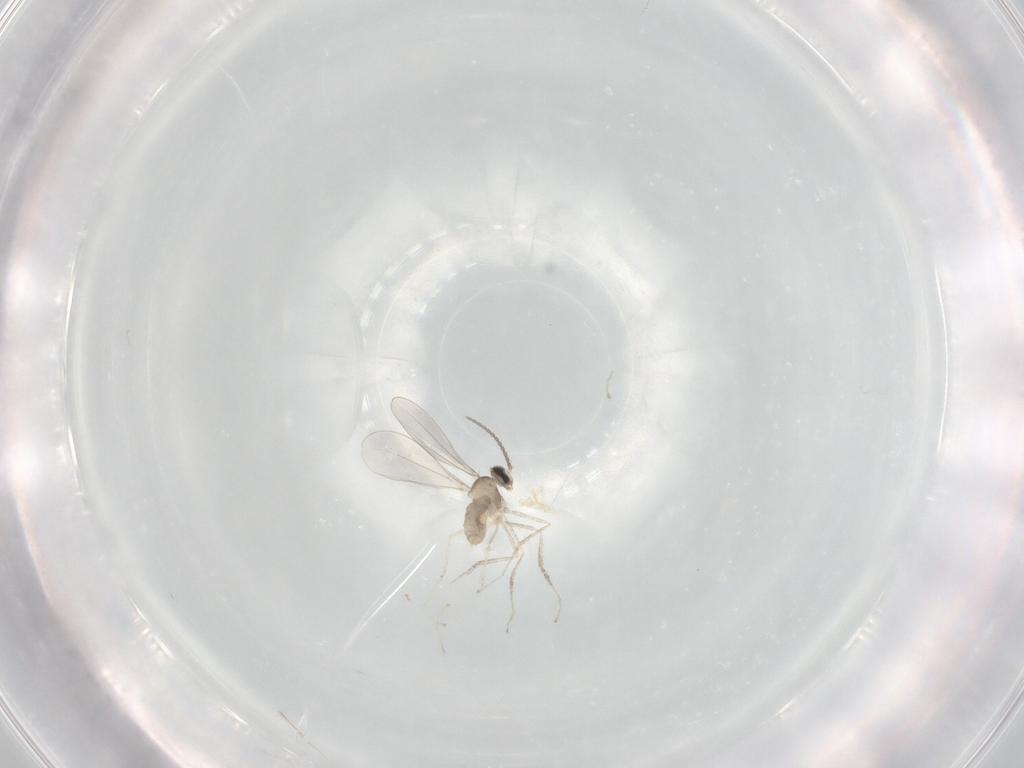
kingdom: Animalia
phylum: Arthropoda
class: Insecta
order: Diptera
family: Cecidomyiidae
